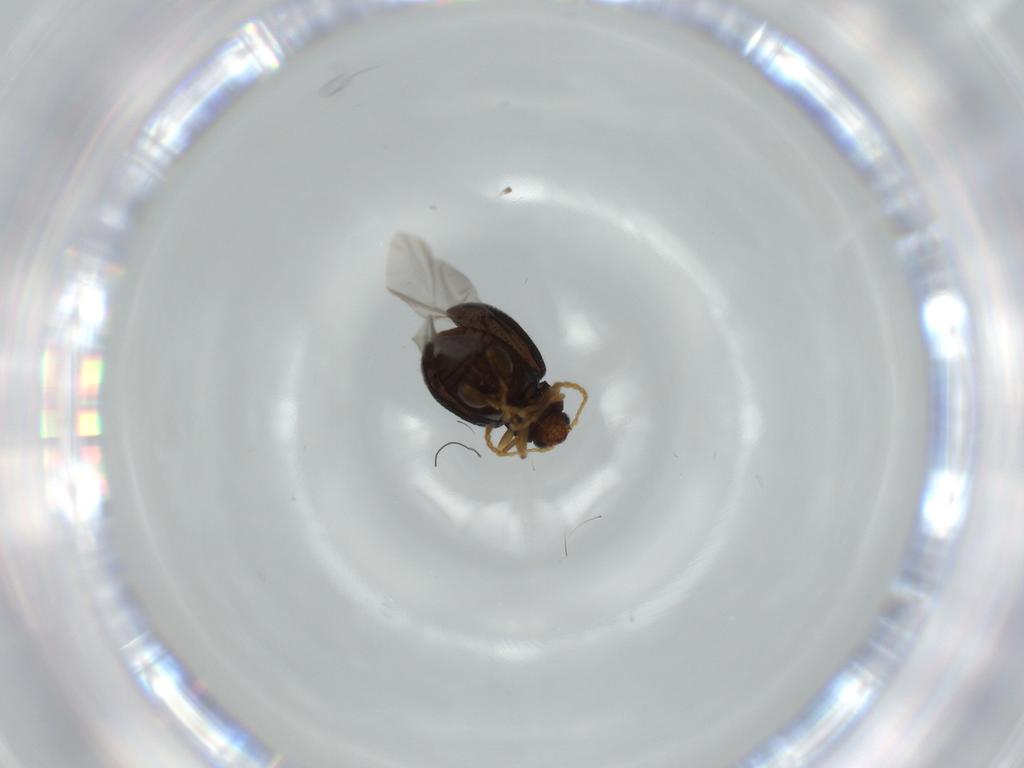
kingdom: Animalia
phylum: Arthropoda
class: Insecta
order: Coleoptera
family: Chrysomelidae
